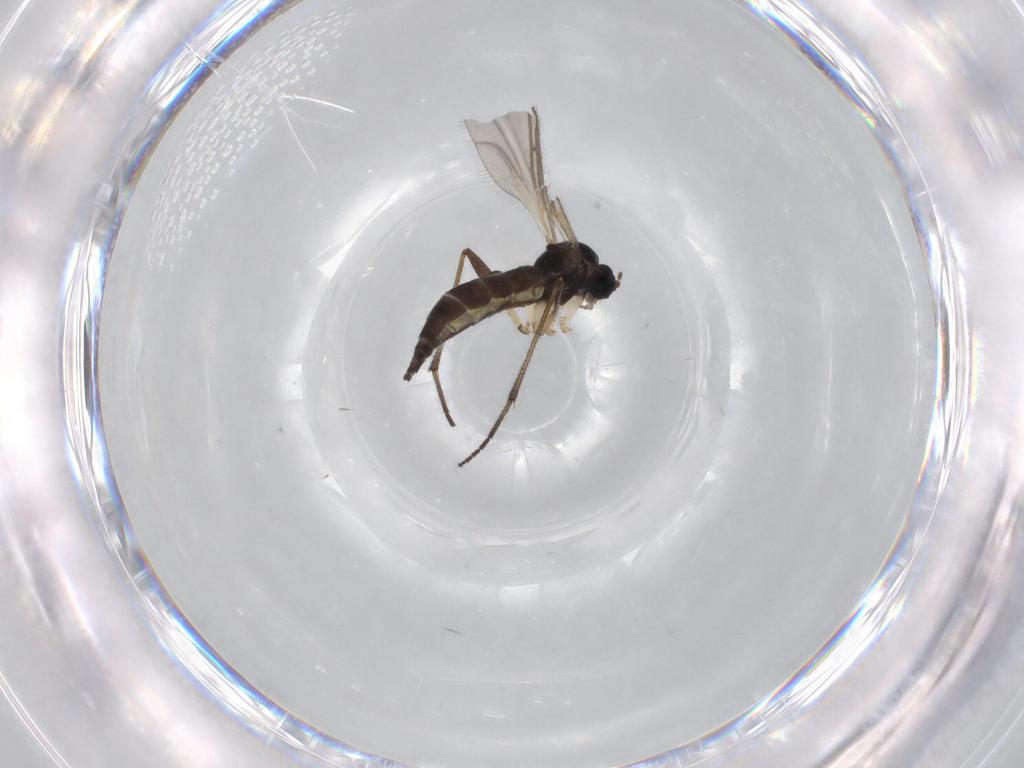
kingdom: Animalia
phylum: Arthropoda
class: Insecta
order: Diptera
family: Sciaridae
